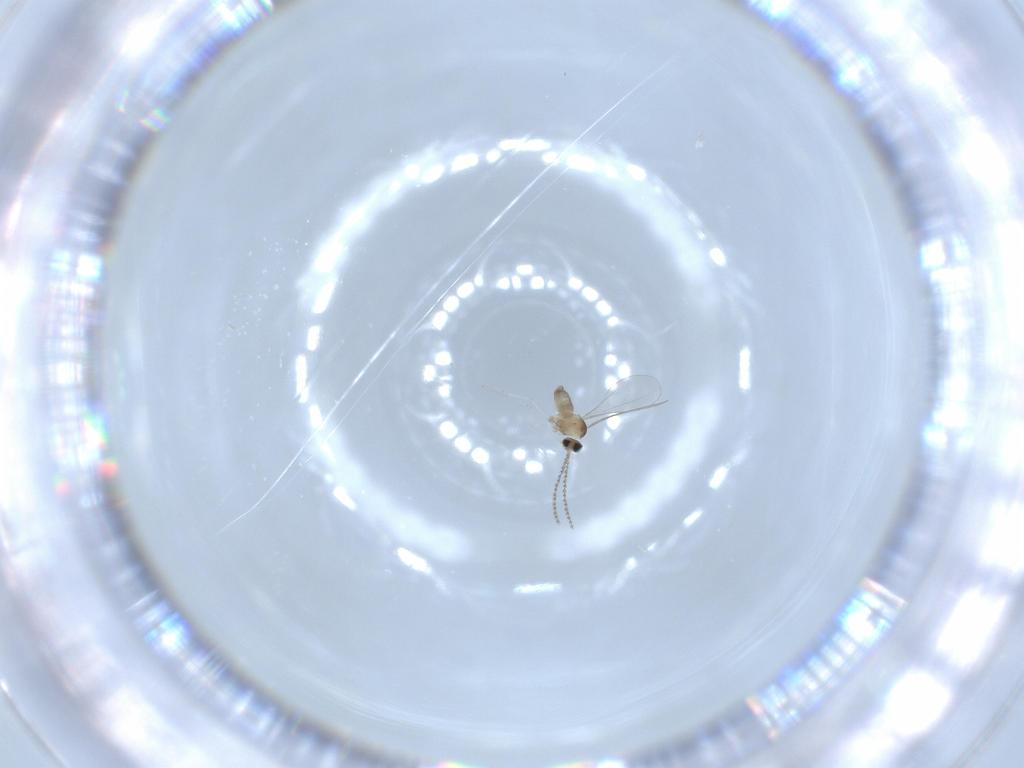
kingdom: Animalia
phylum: Arthropoda
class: Insecta
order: Diptera
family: Cecidomyiidae
